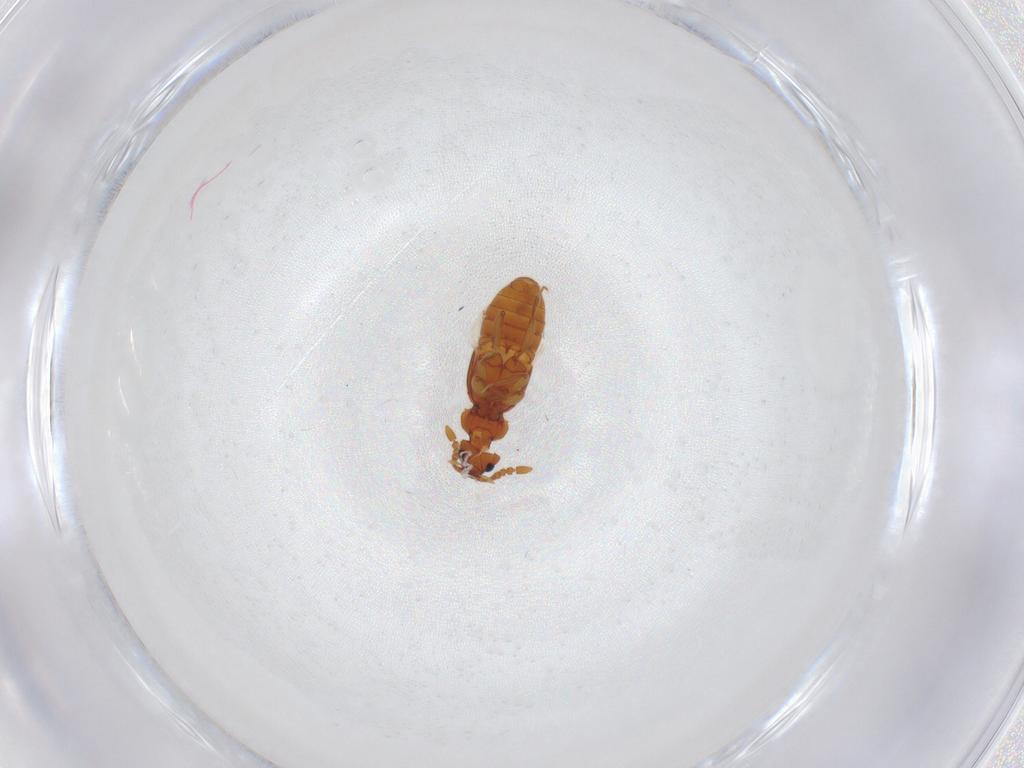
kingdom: Animalia
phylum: Arthropoda
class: Insecta
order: Coleoptera
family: Staphylinidae
